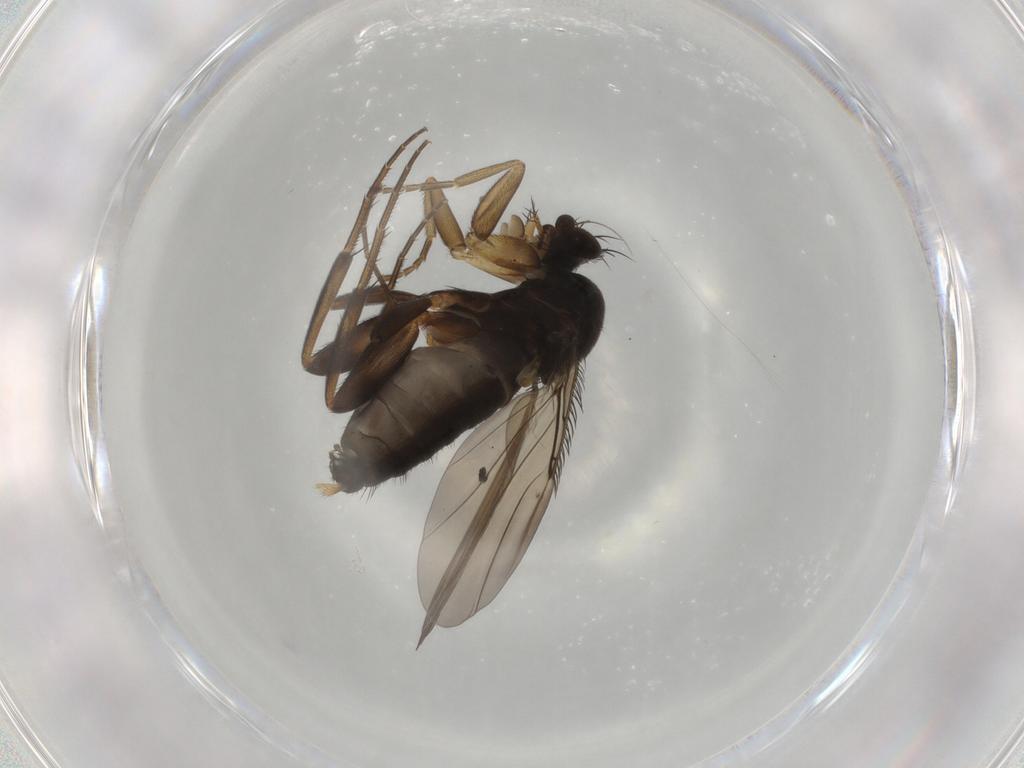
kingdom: Animalia
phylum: Arthropoda
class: Insecta
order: Diptera
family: Phoridae
